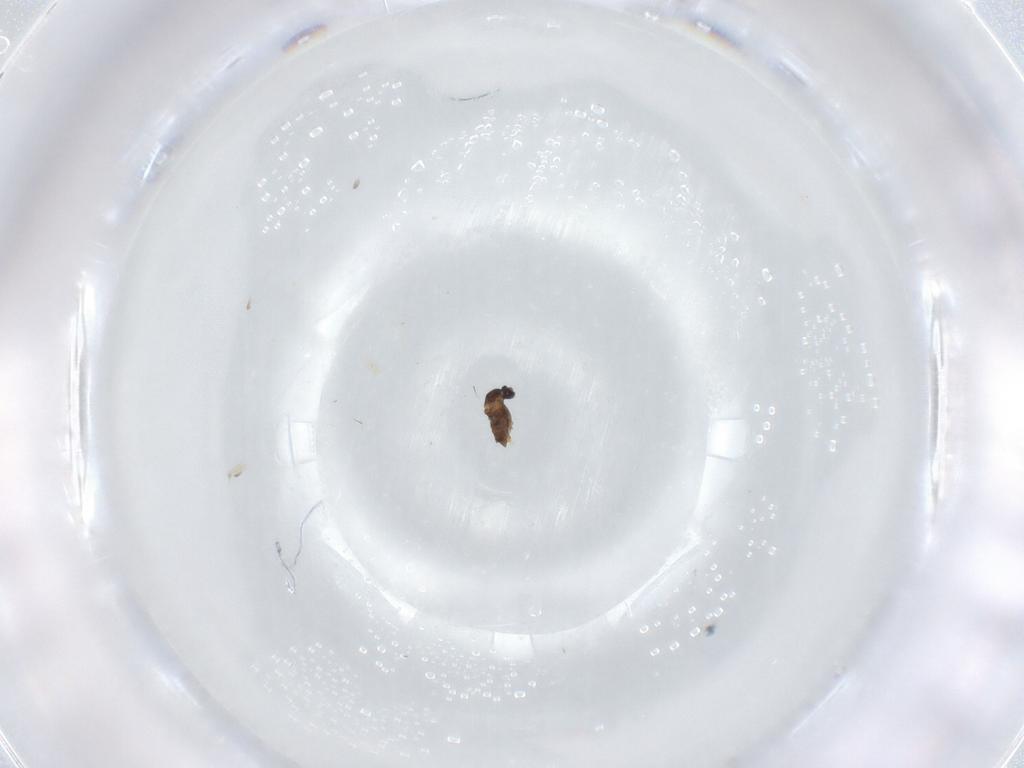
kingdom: Animalia
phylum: Arthropoda
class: Insecta
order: Diptera
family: Cecidomyiidae
